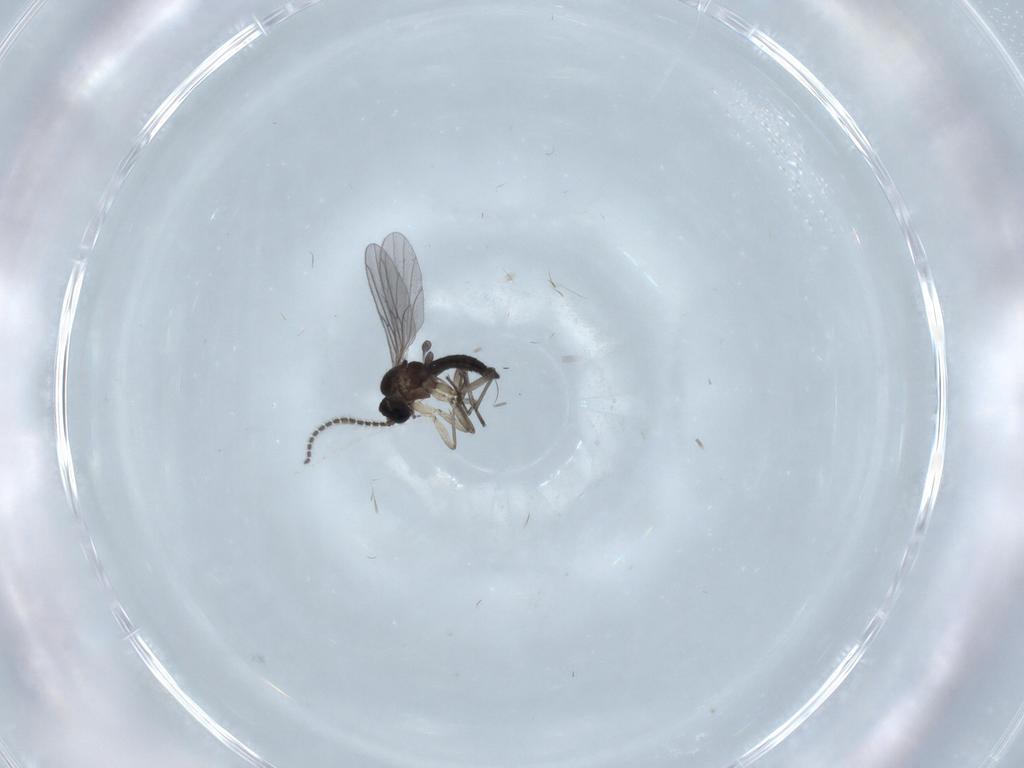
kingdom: Animalia
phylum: Arthropoda
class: Insecta
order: Diptera
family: Sciaridae
